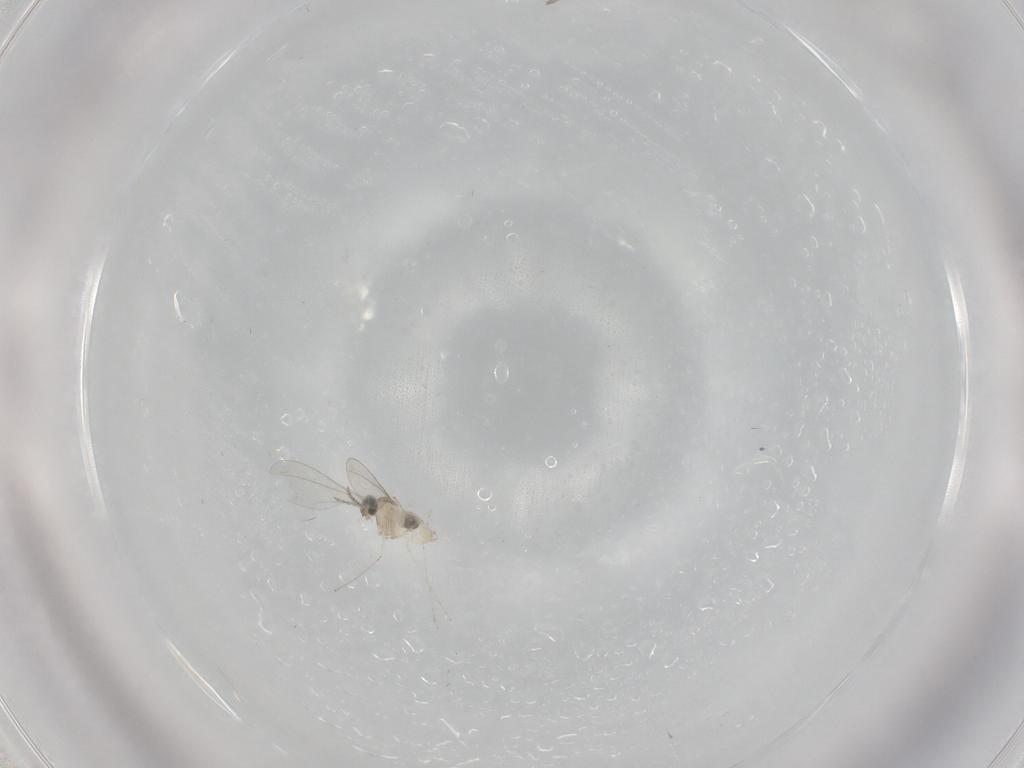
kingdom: Animalia
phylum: Arthropoda
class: Insecta
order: Diptera
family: Cecidomyiidae
